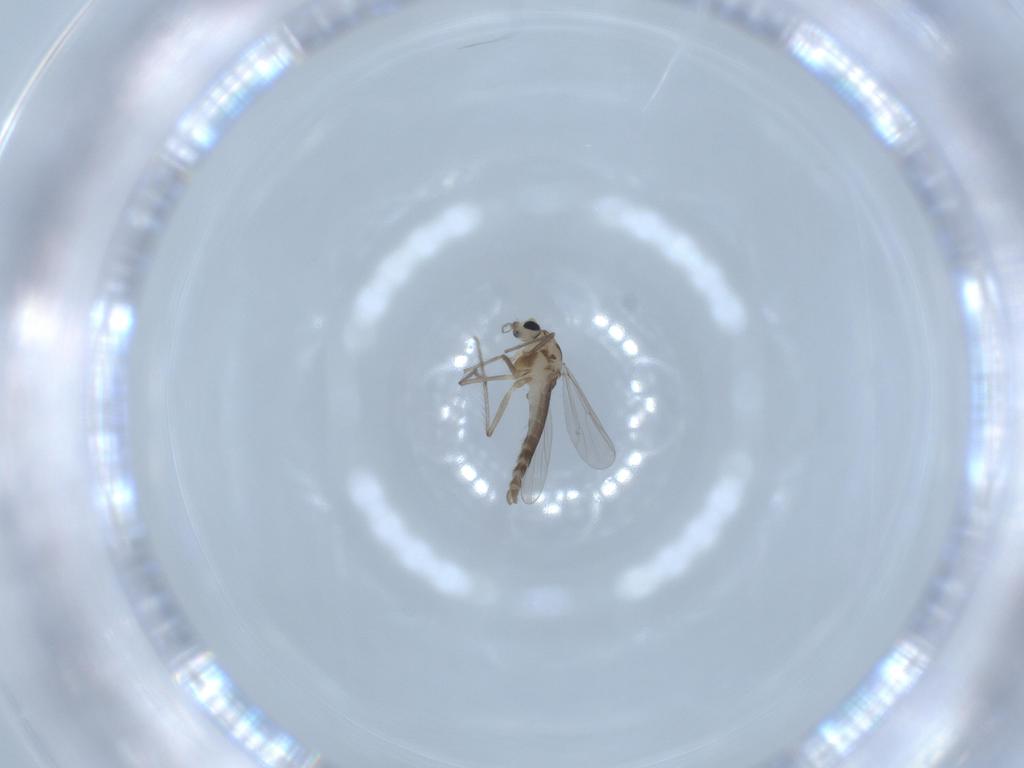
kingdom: Animalia
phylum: Arthropoda
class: Insecta
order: Diptera
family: Chironomidae
